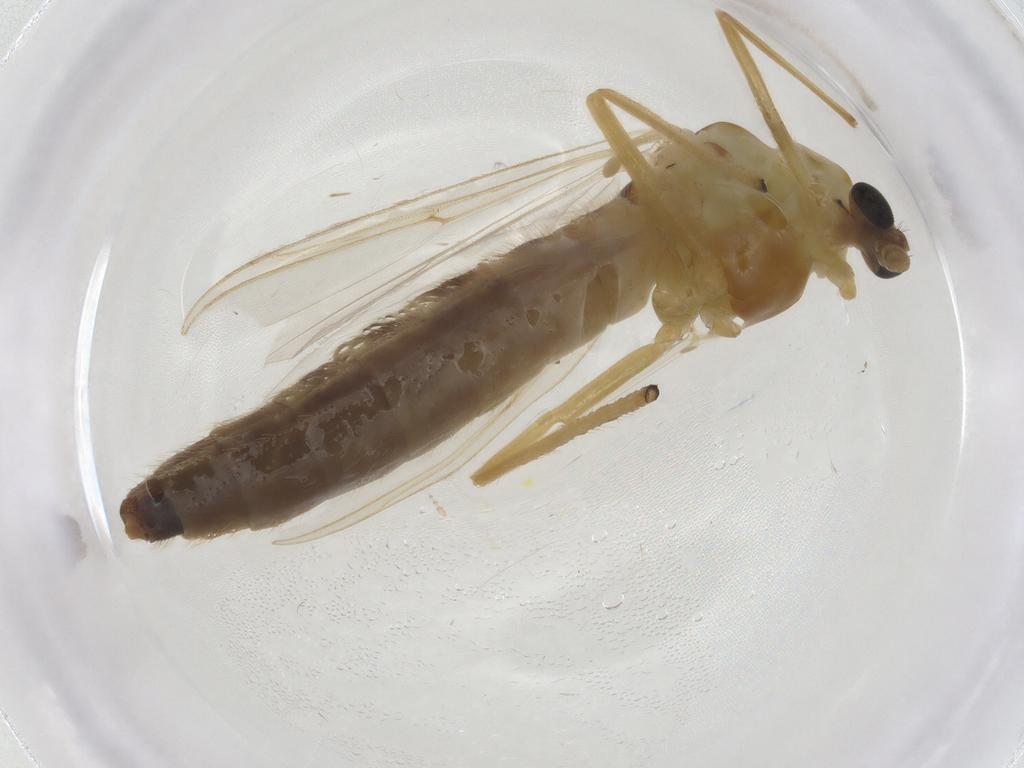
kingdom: Animalia
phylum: Arthropoda
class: Insecta
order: Diptera
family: Chironomidae
